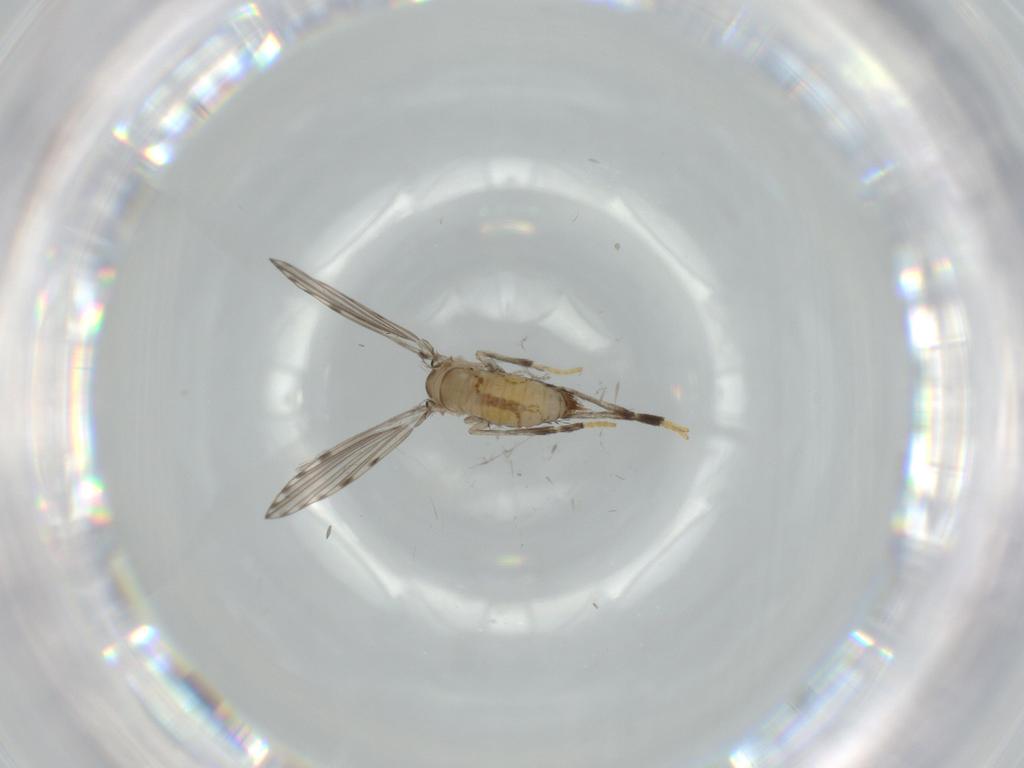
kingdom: Animalia
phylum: Arthropoda
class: Insecta
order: Diptera
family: Psychodidae
